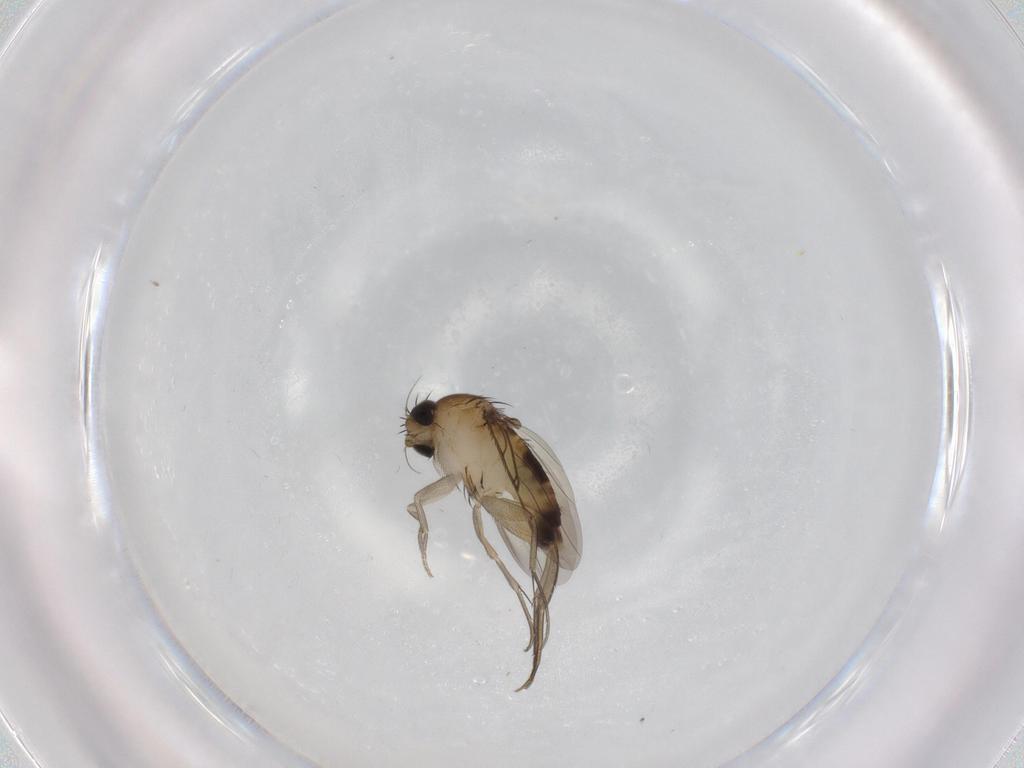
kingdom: Animalia
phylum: Arthropoda
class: Insecta
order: Diptera
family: Phoridae
